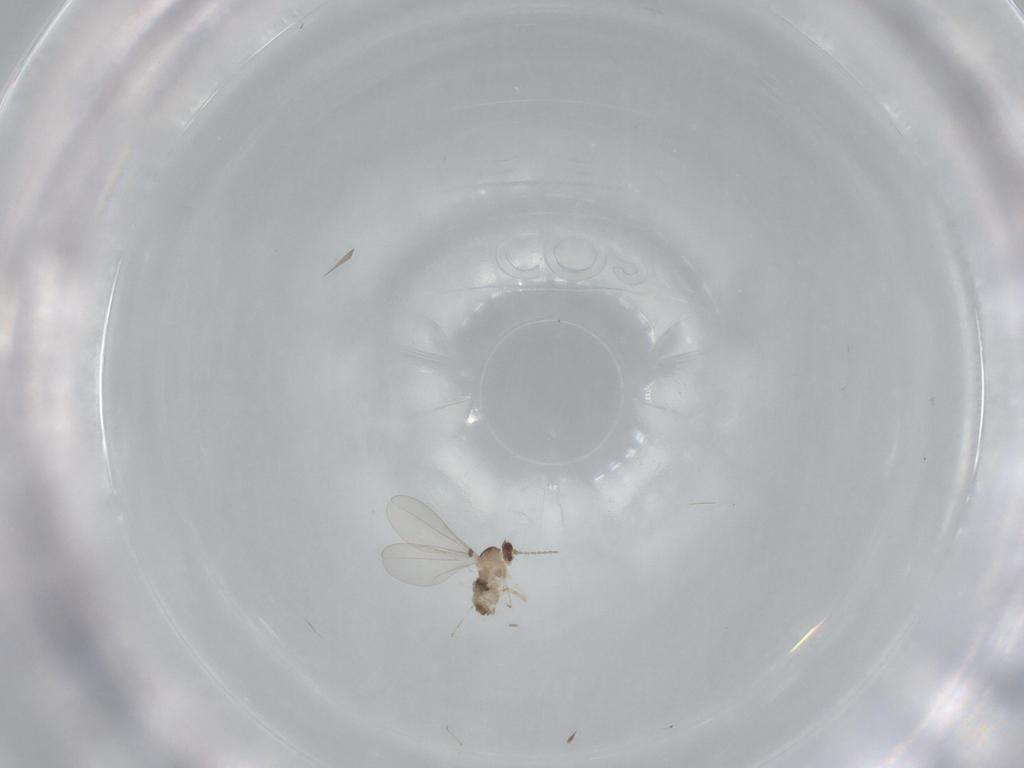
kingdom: Animalia
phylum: Arthropoda
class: Insecta
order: Diptera
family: Cecidomyiidae
